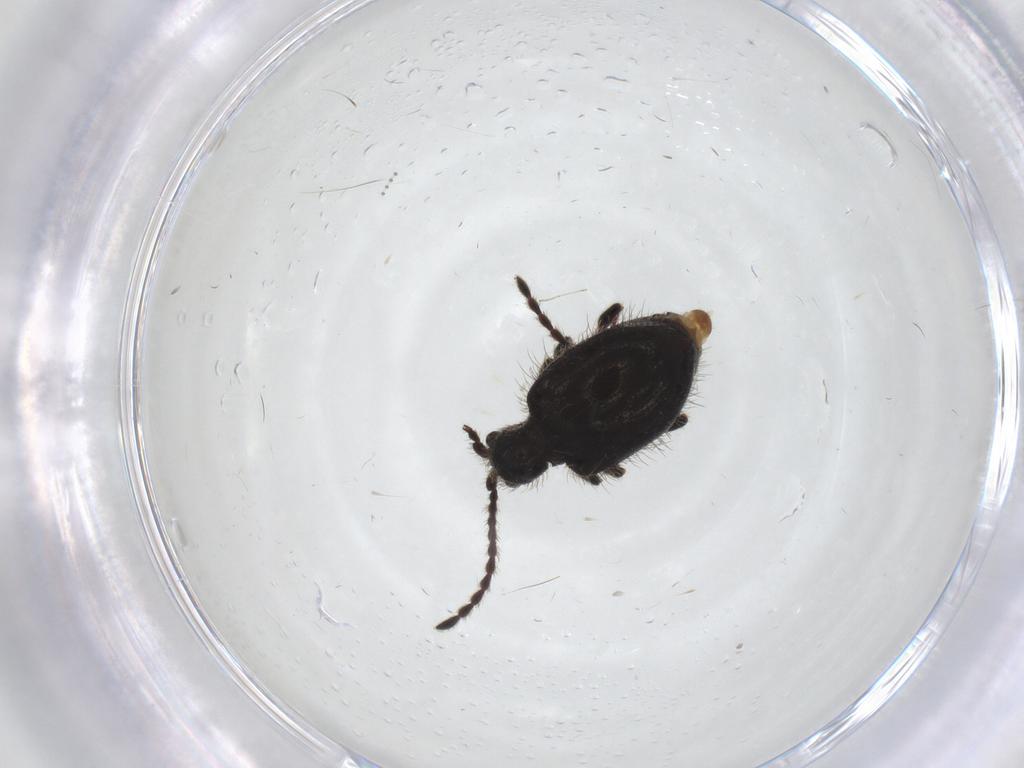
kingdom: Animalia
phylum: Arthropoda
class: Insecta
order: Coleoptera
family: Ptinidae
